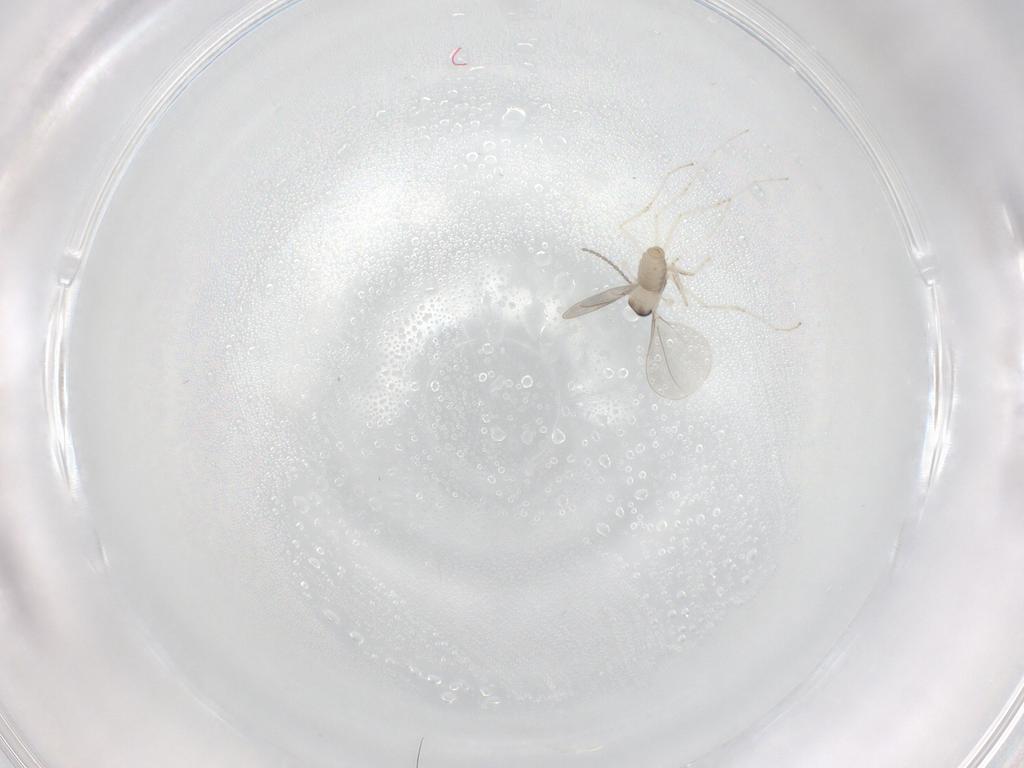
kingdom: Animalia
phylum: Arthropoda
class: Insecta
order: Diptera
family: Cecidomyiidae
